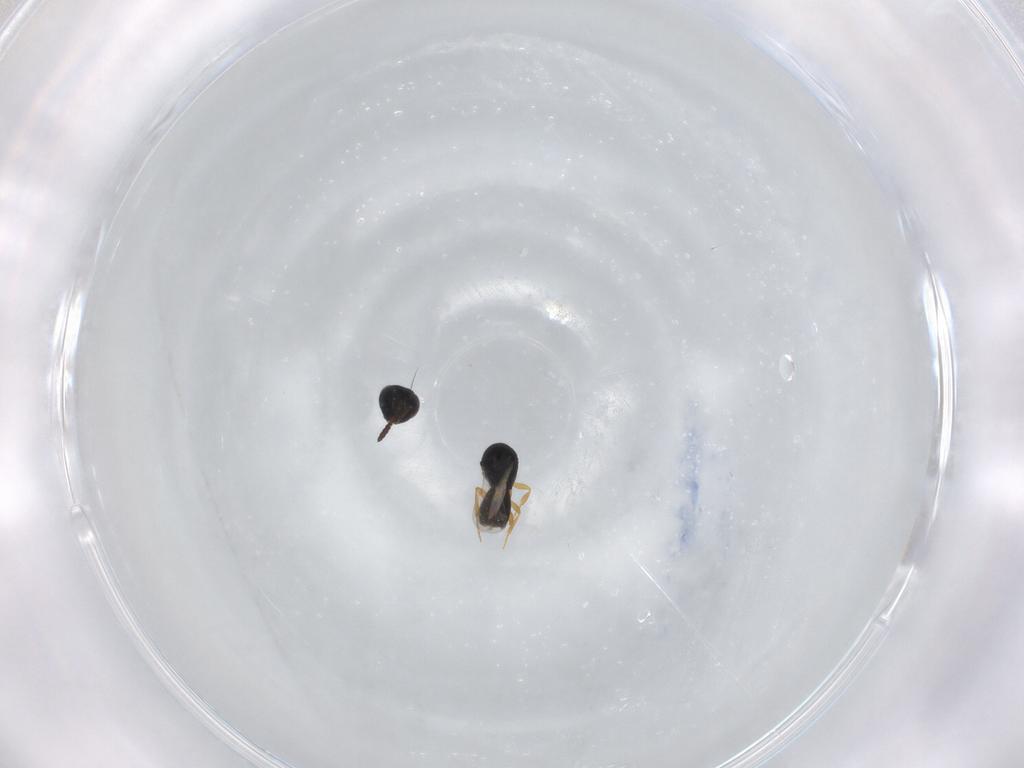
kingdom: Animalia
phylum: Arthropoda
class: Insecta
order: Hymenoptera
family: Scelionidae
